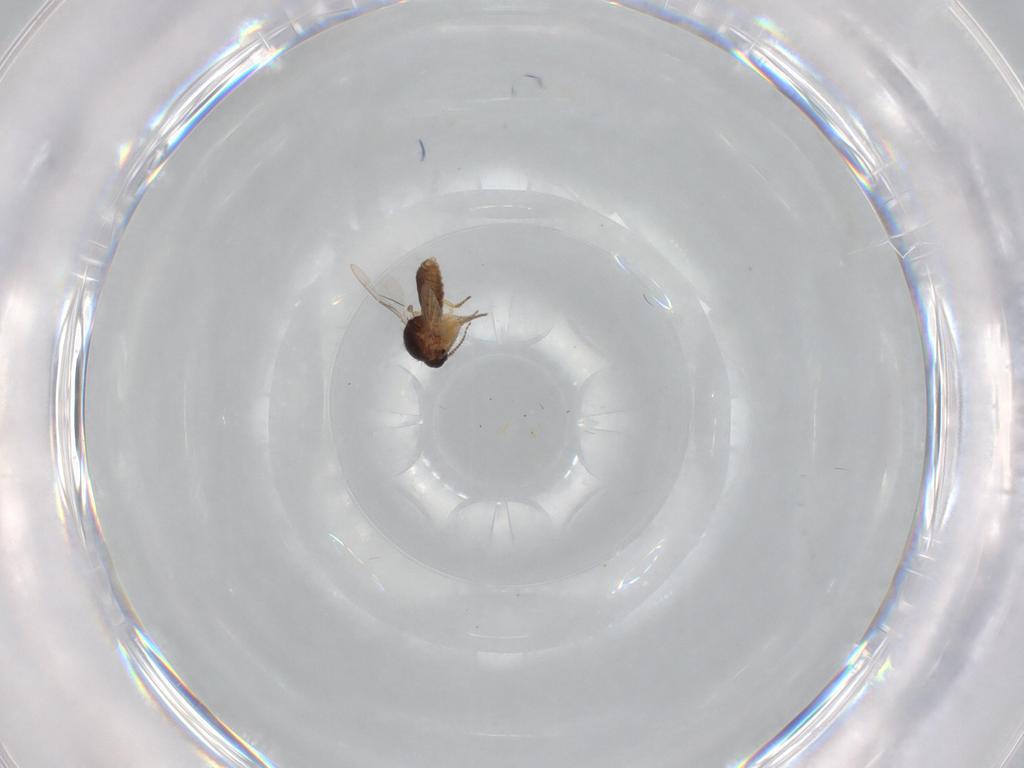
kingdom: Animalia
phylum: Arthropoda
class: Insecta
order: Diptera
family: Ceratopogonidae
